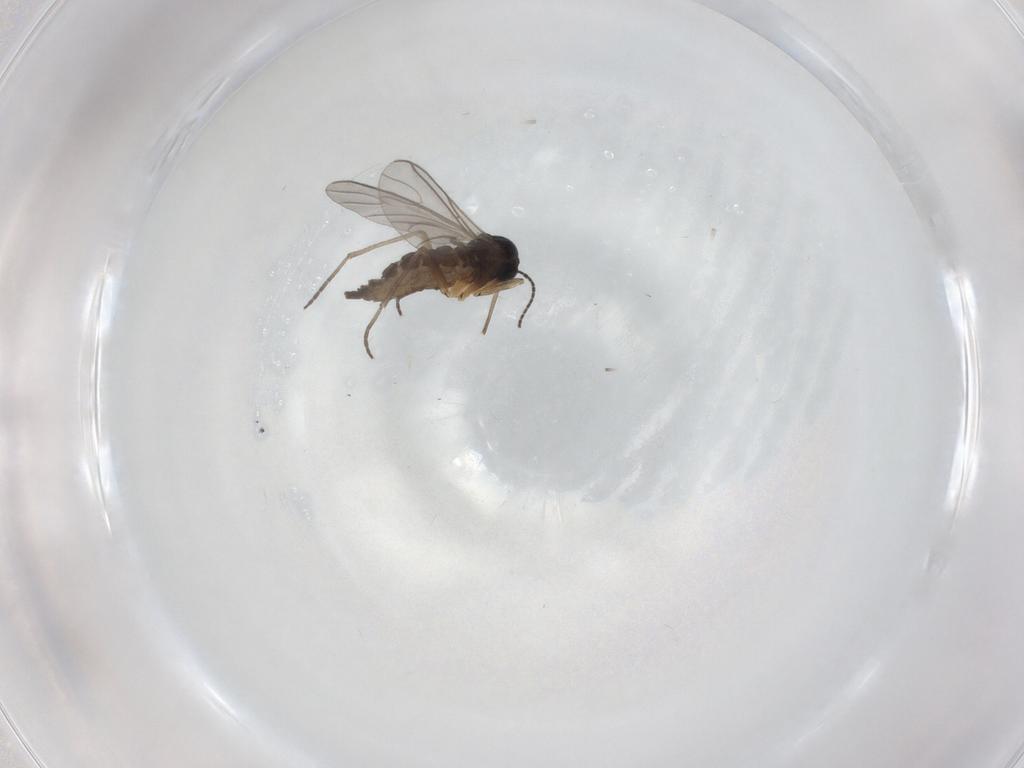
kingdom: Animalia
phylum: Arthropoda
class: Insecta
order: Diptera
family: Sciaridae
